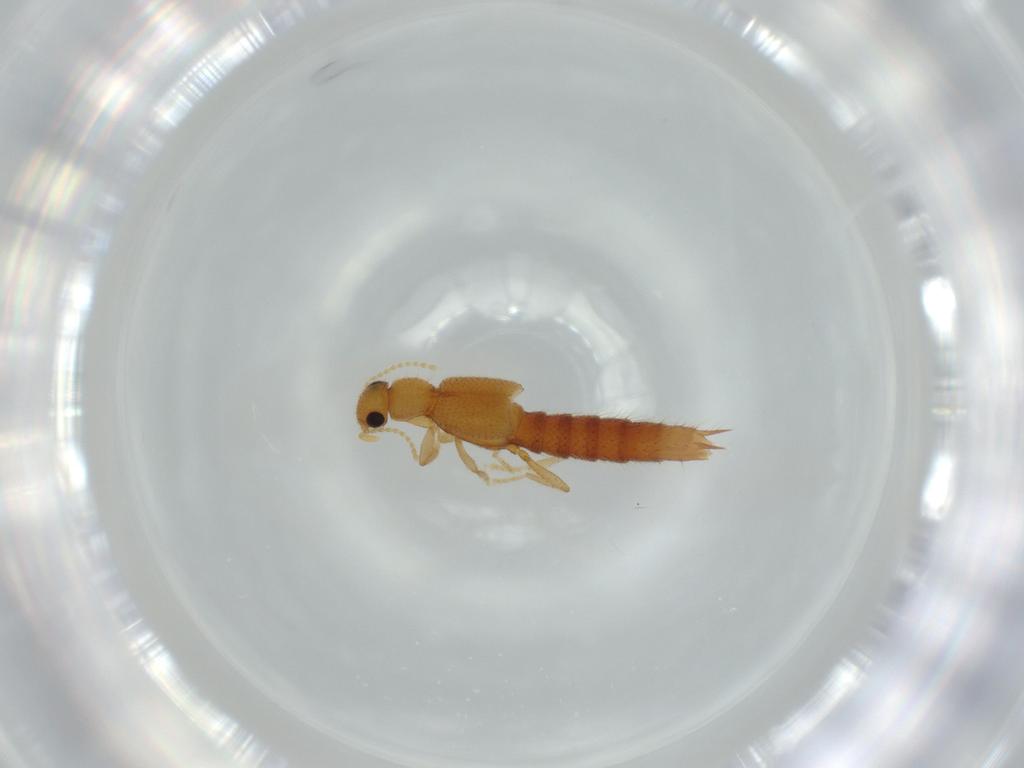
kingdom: Animalia
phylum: Arthropoda
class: Insecta
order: Coleoptera
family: Staphylinidae
